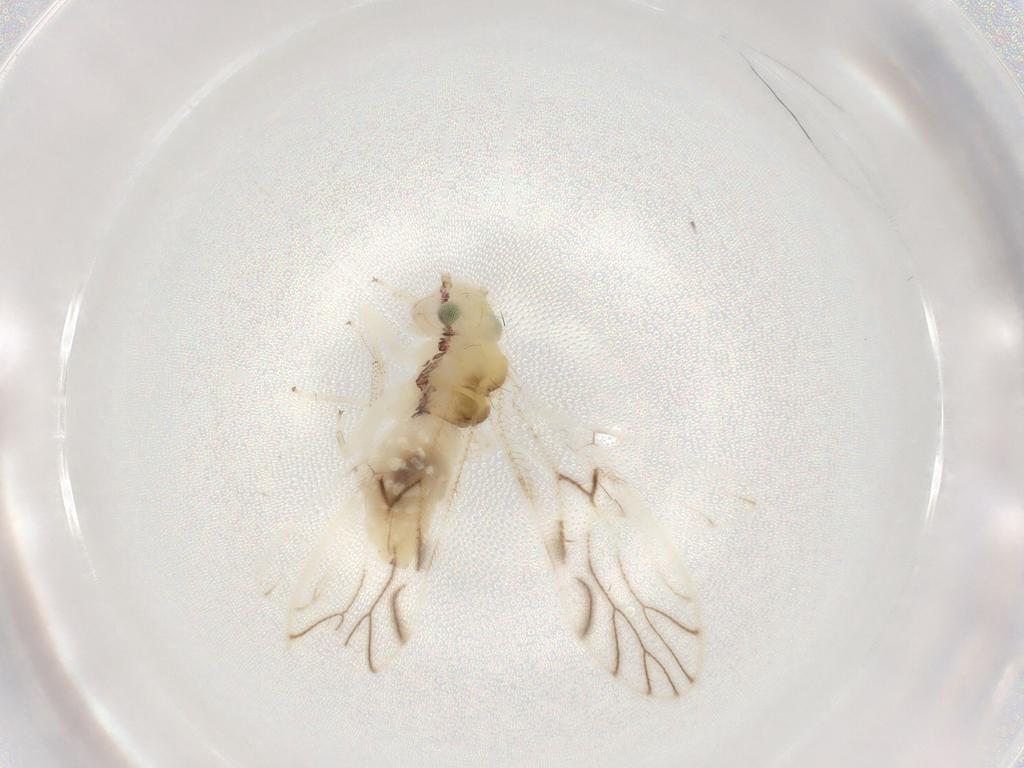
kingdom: Animalia
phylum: Arthropoda
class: Insecta
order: Psocodea
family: Philotarsidae
